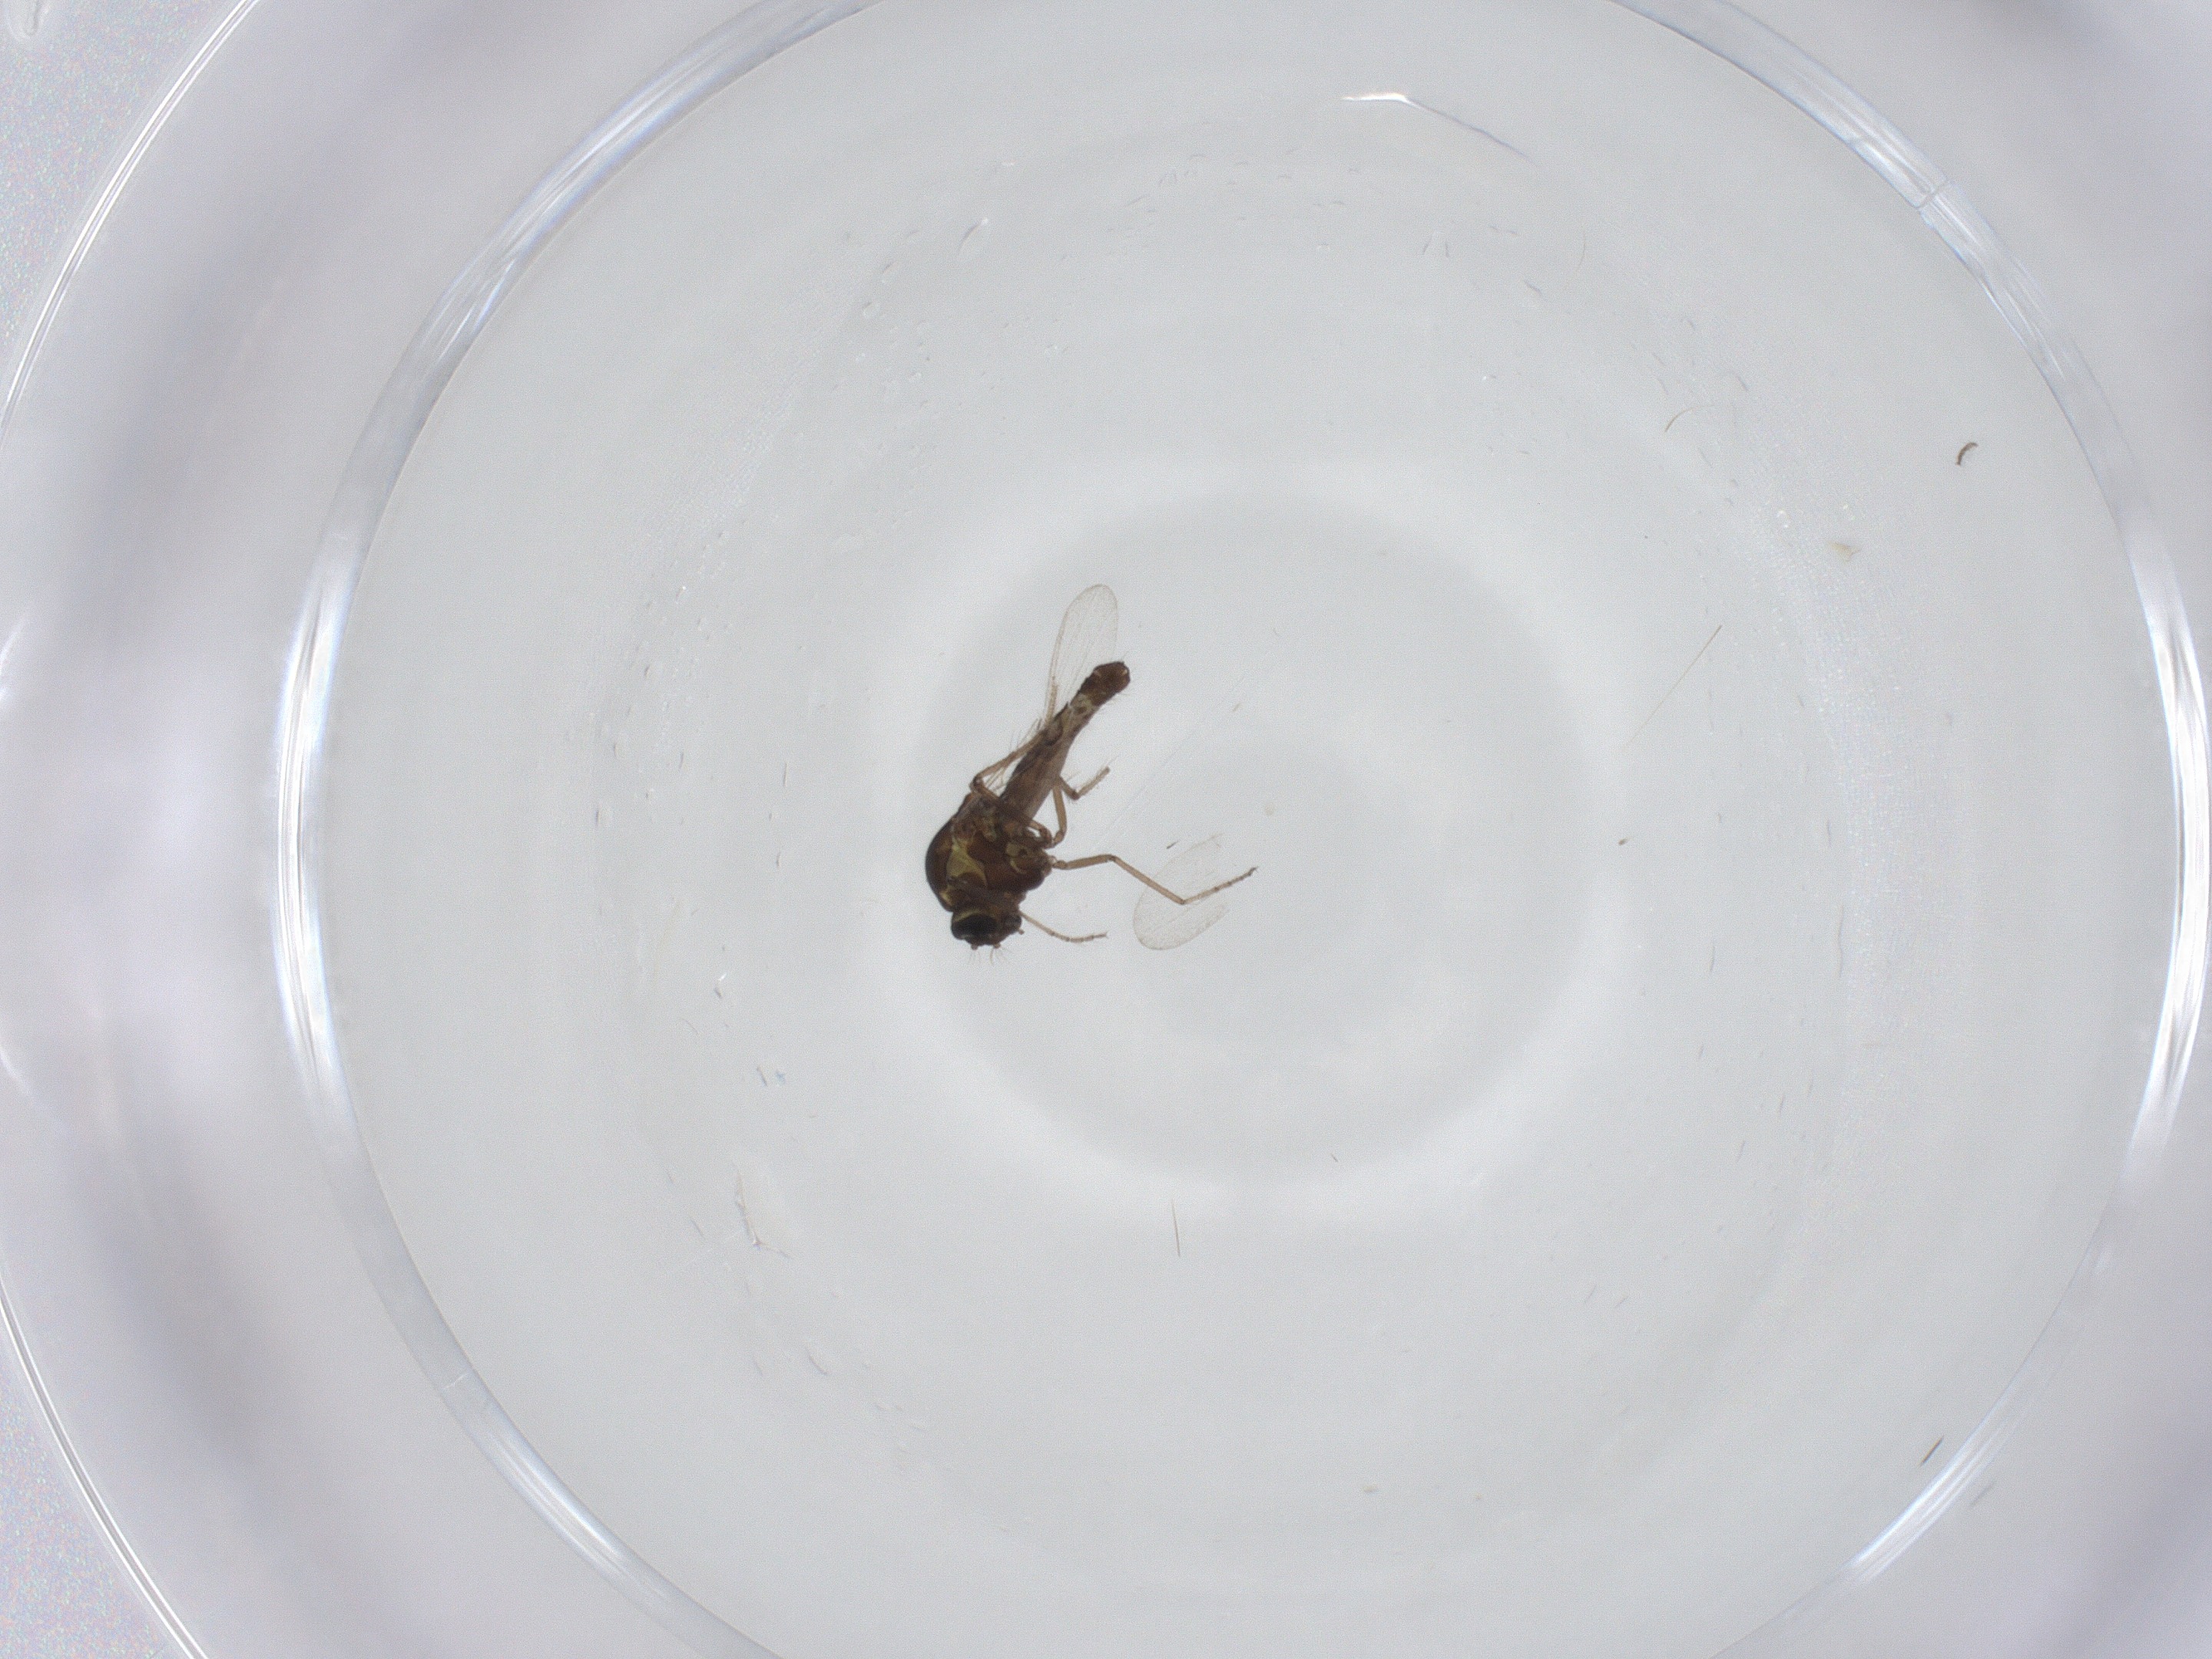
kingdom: Animalia
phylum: Arthropoda
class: Insecta
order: Diptera
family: Ceratopogonidae
